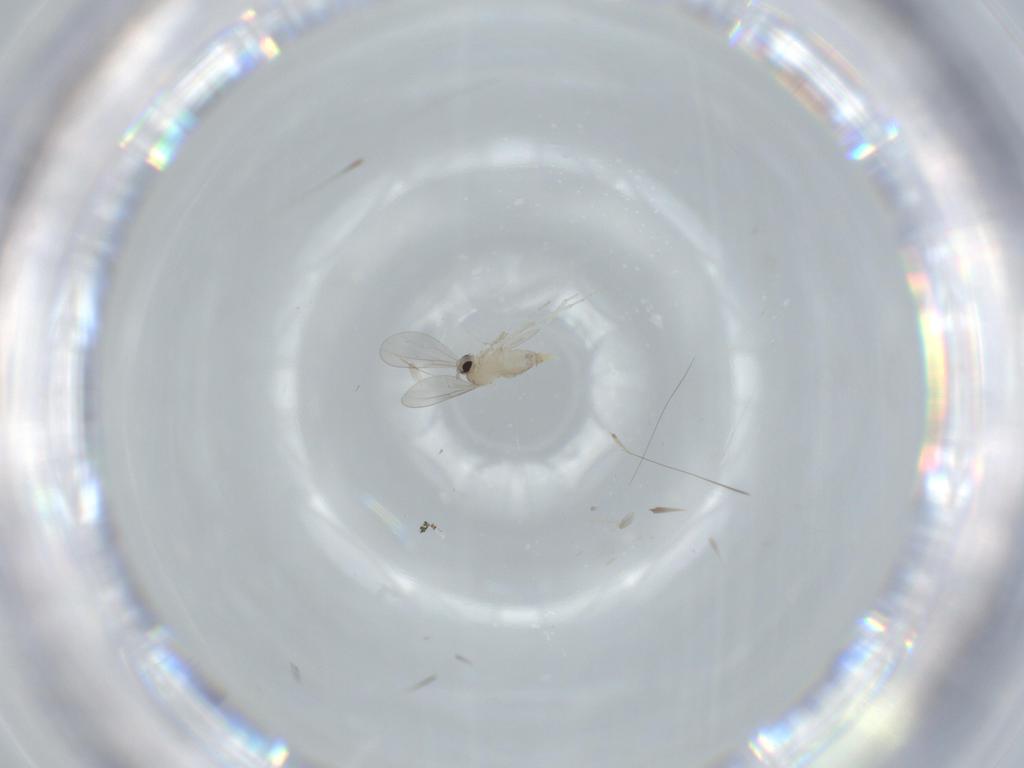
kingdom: Animalia
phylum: Arthropoda
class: Insecta
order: Diptera
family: Cecidomyiidae
